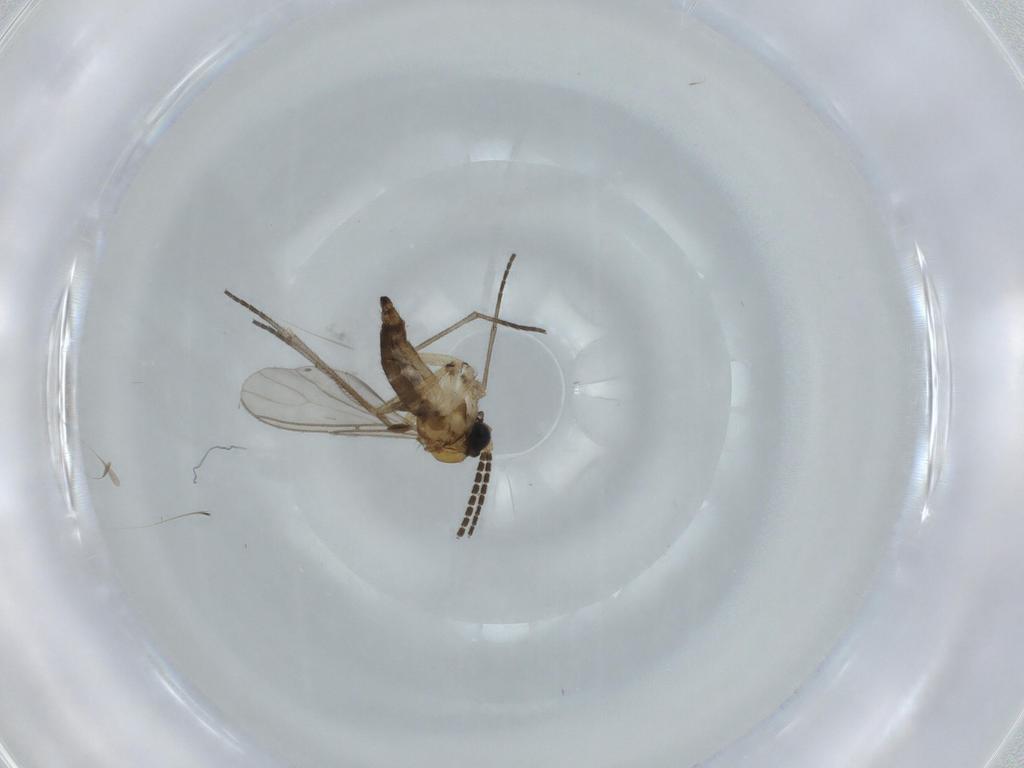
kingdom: Animalia
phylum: Arthropoda
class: Insecta
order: Diptera
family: Sciaridae
